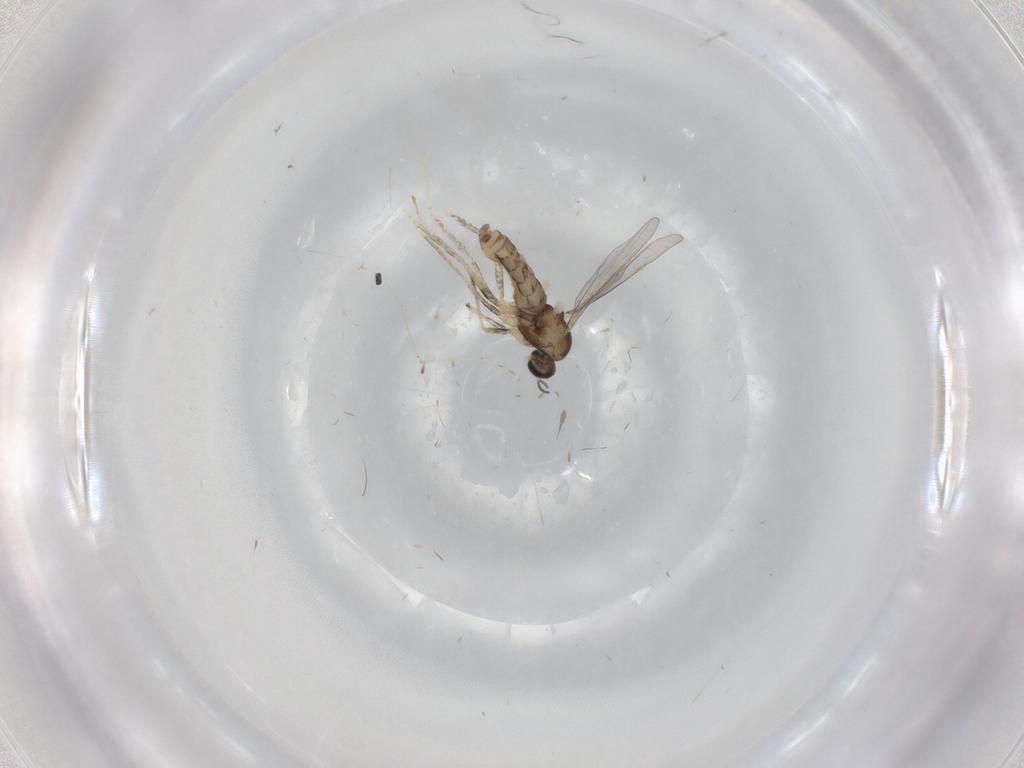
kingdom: Animalia
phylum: Arthropoda
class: Insecta
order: Diptera
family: Cecidomyiidae
